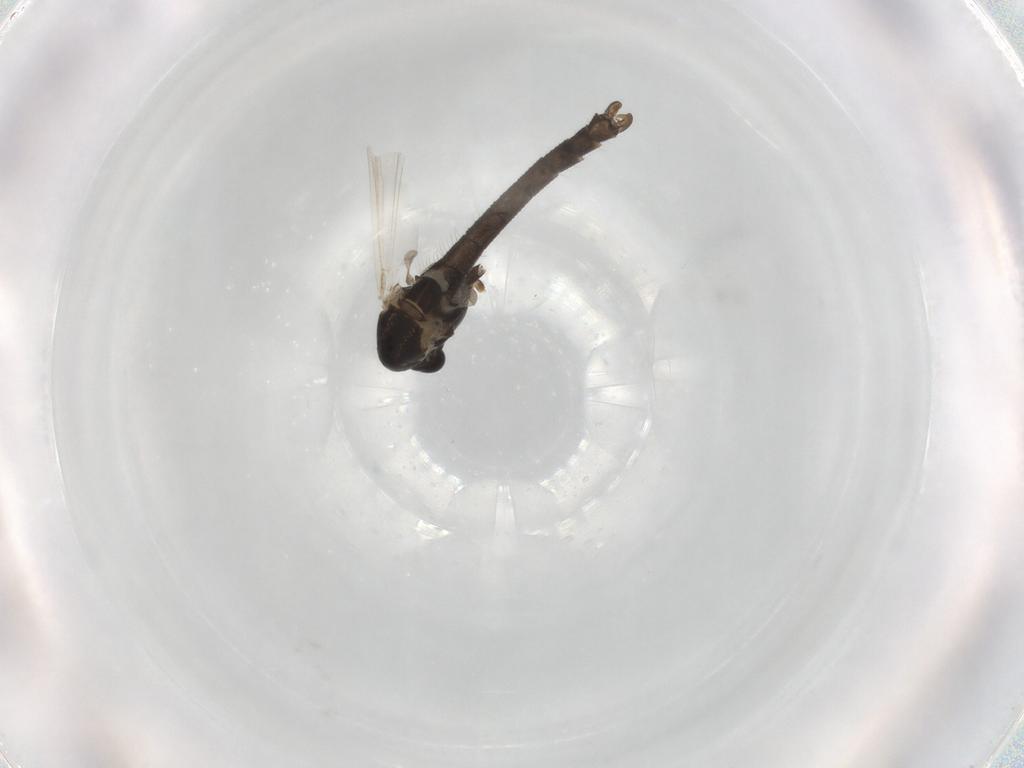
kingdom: Animalia
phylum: Arthropoda
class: Insecta
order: Diptera
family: Chironomidae
